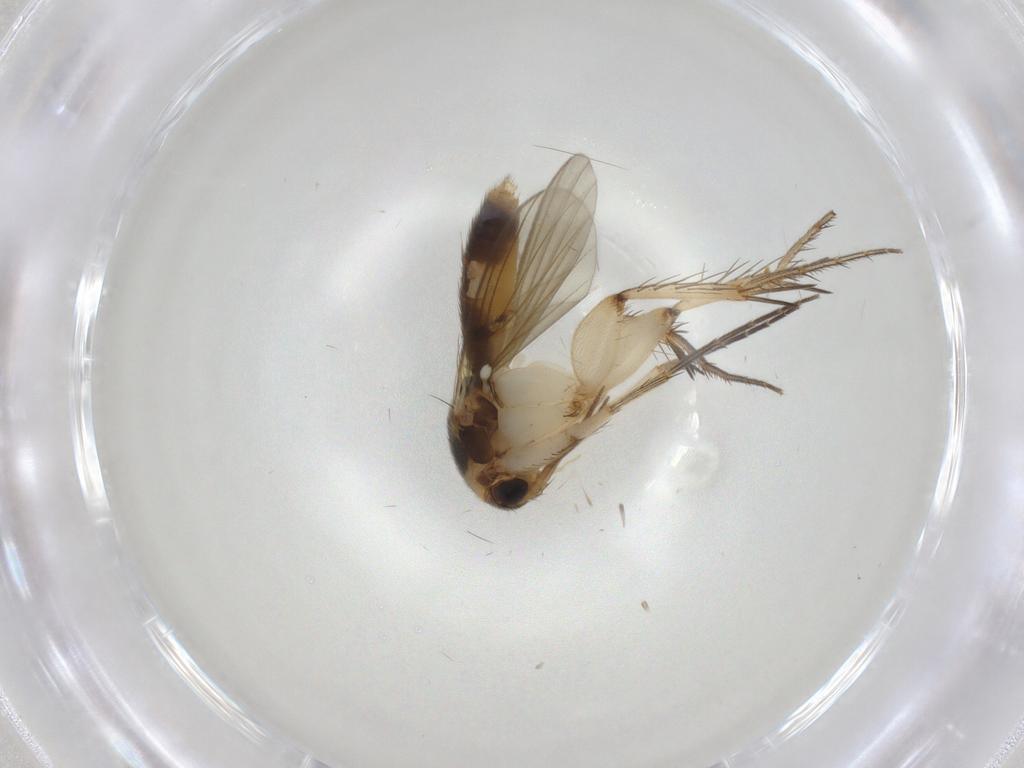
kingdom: Animalia
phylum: Arthropoda
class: Insecta
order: Diptera
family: Mycetophilidae
